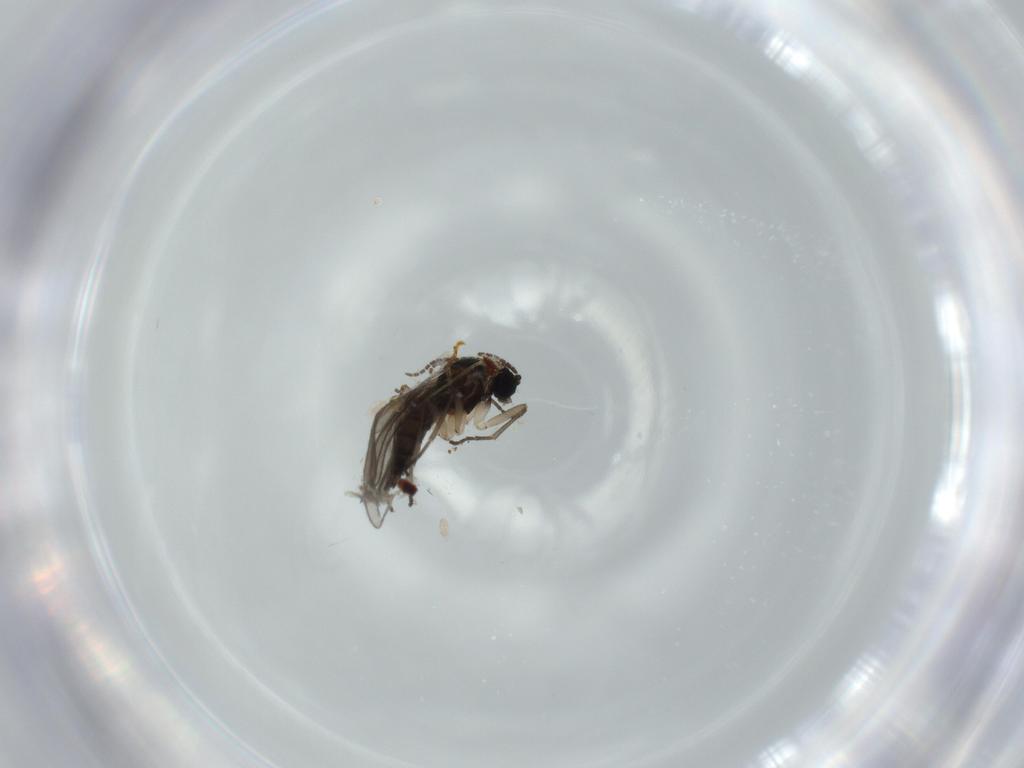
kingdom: Animalia
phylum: Arthropoda
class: Insecta
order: Diptera
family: Sciaridae
